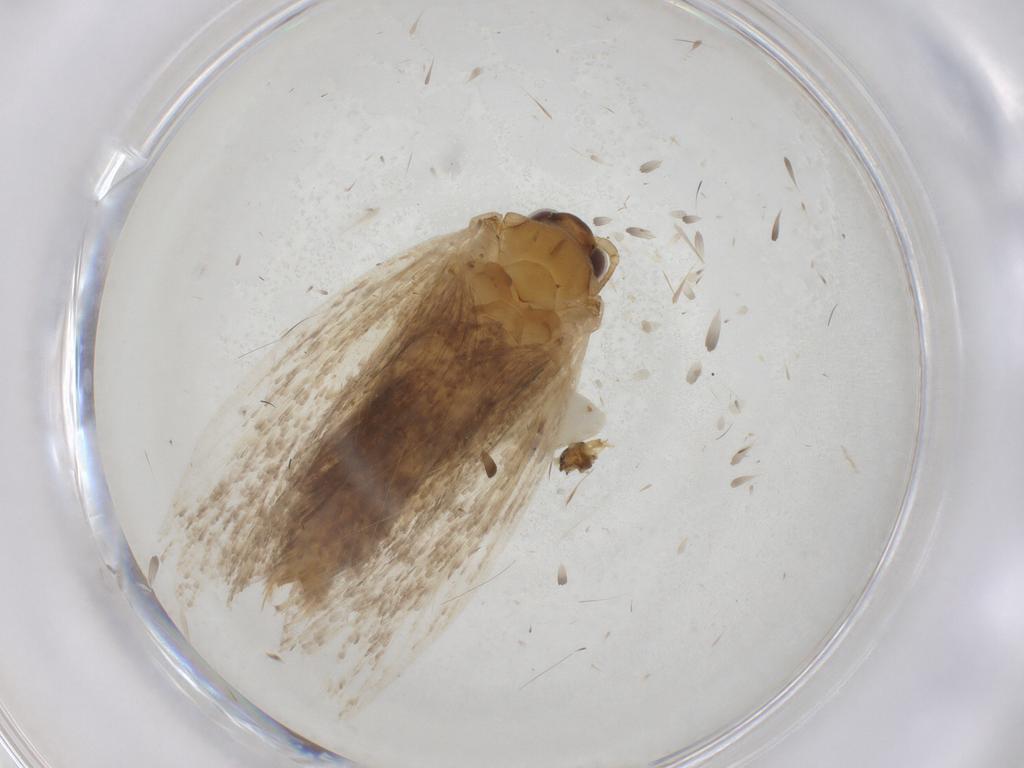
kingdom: Animalia
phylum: Arthropoda
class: Insecta
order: Lepidoptera
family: Tortricidae
